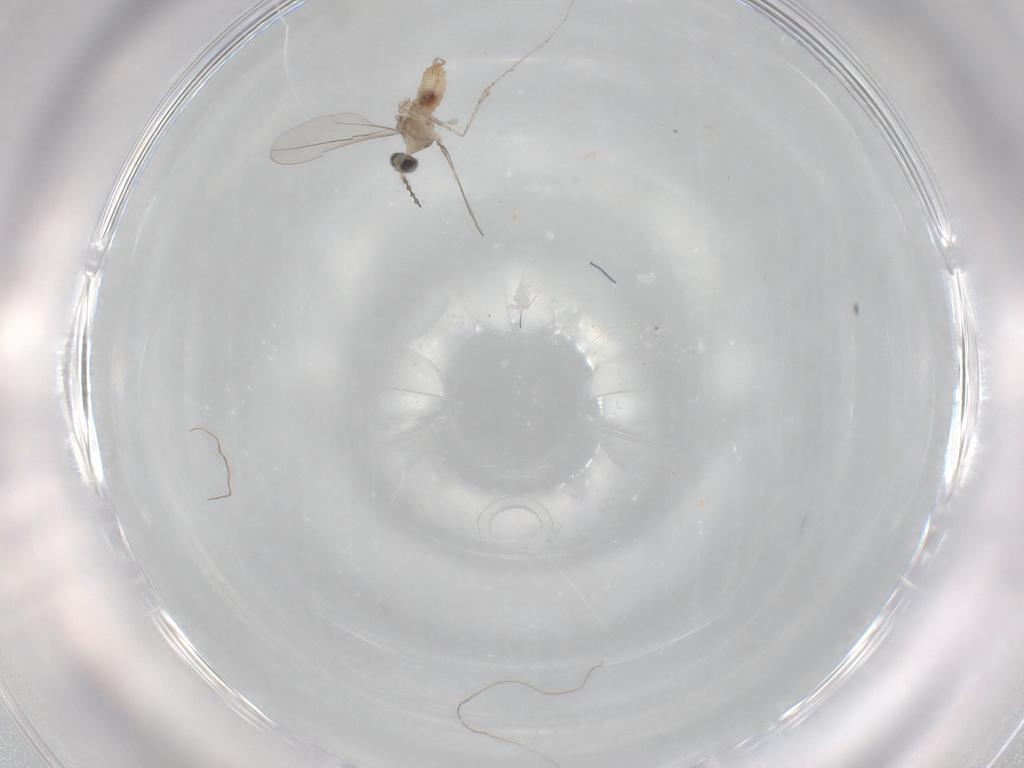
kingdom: Animalia
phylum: Arthropoda
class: Insecta
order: Diptera
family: Cecidomyiidae
